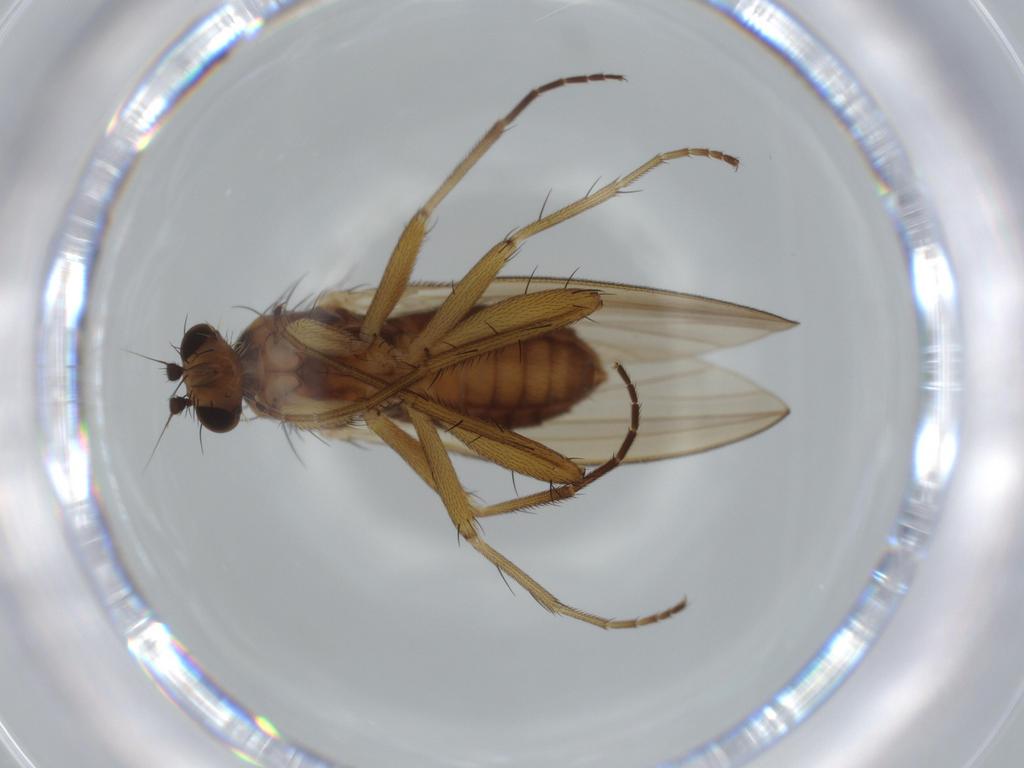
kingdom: Animalia
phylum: Arthropoda
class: Insecta
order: Diptera
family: Lonchopteridae
